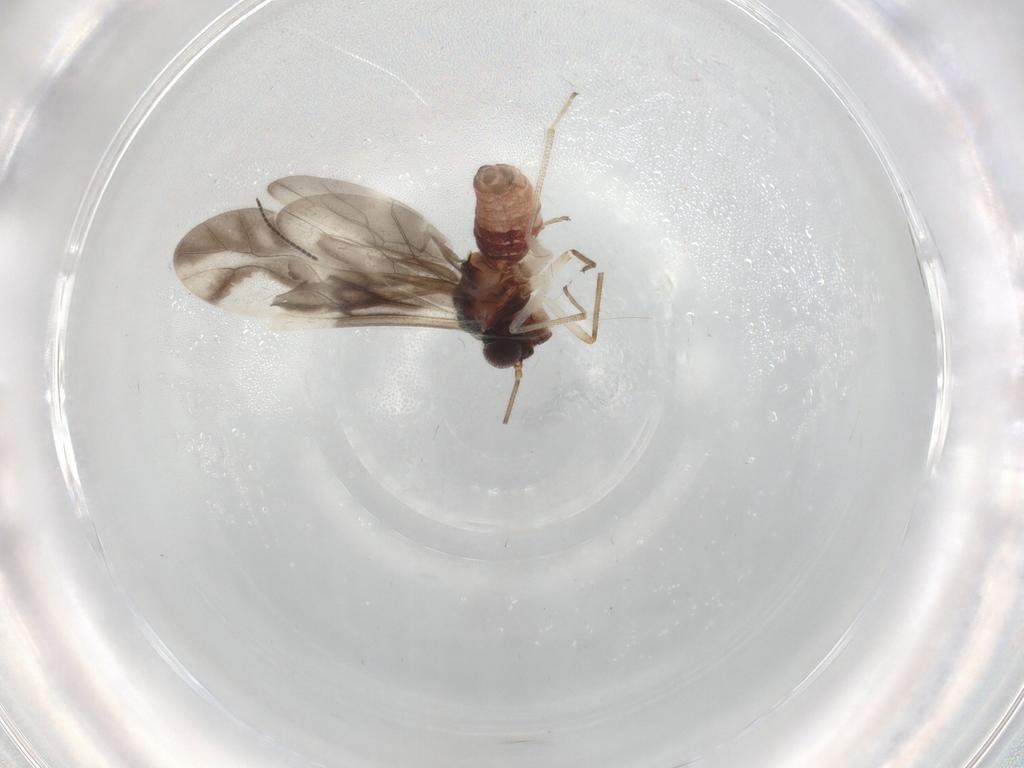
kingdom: Animalia
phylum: Arthropoda
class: Insecta
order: Psocodea
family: Caeciliusidae
